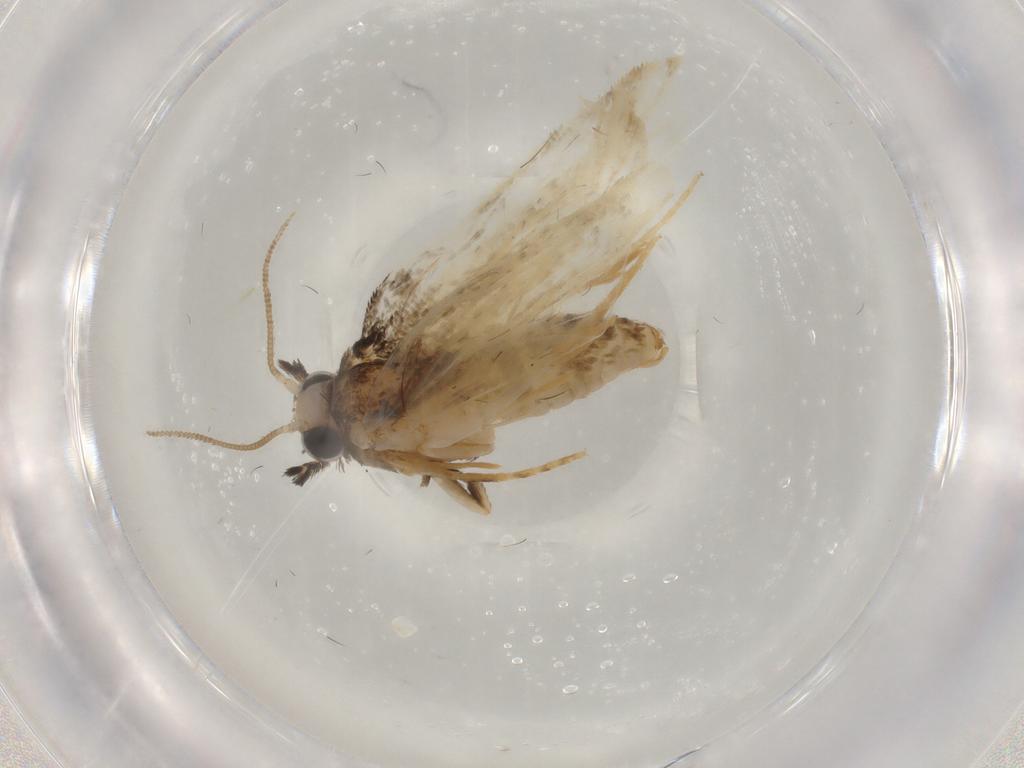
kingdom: Animalia
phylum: Arthropoda
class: Insecta
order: Lepidoptera
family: Psychidae
